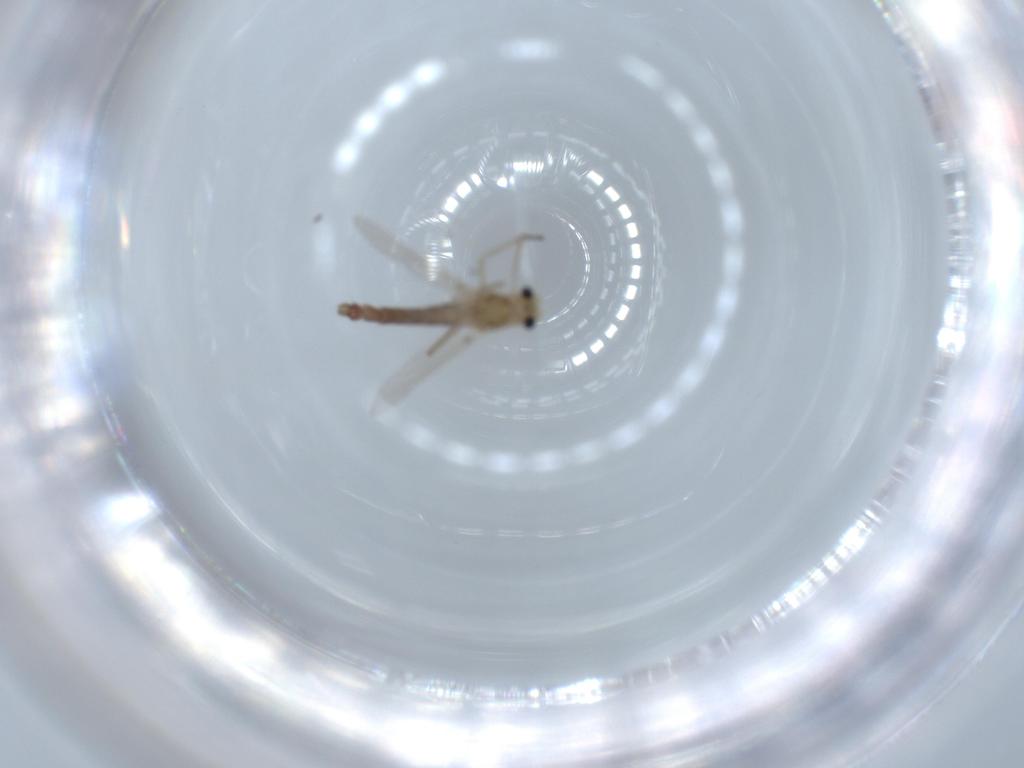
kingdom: Animalia
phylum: Arthropoda
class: Insecta
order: Diptera
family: Chironomidae
